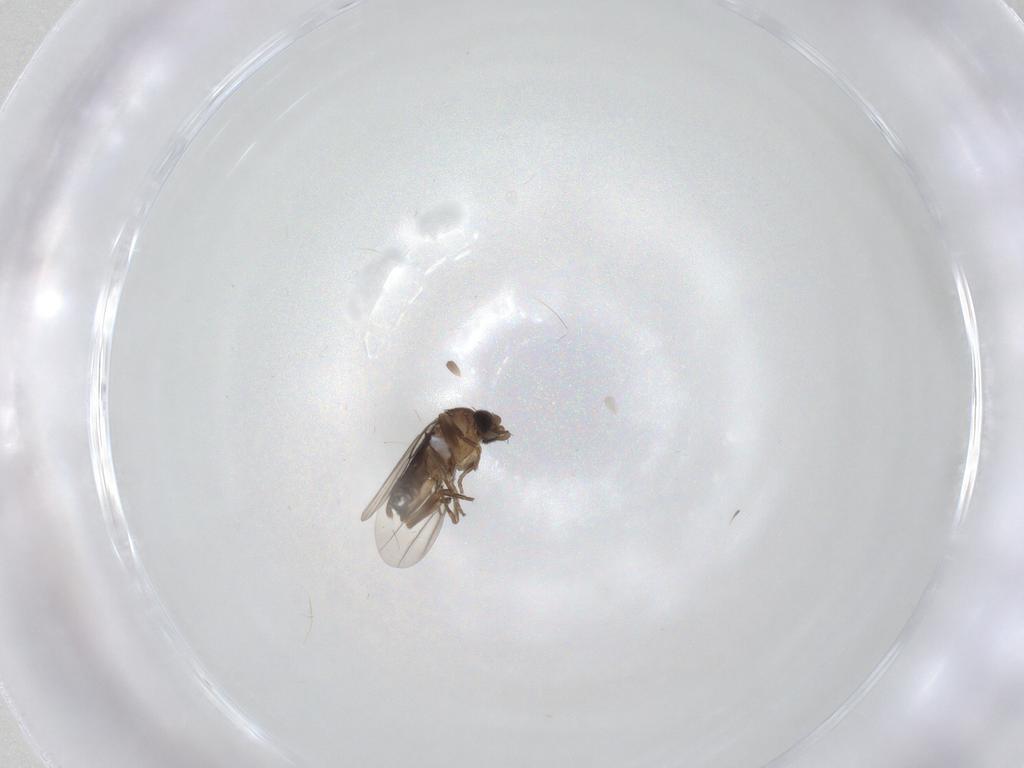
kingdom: Animalia
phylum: Arthropoda
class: Insecta
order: Diptera
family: Phoridae
